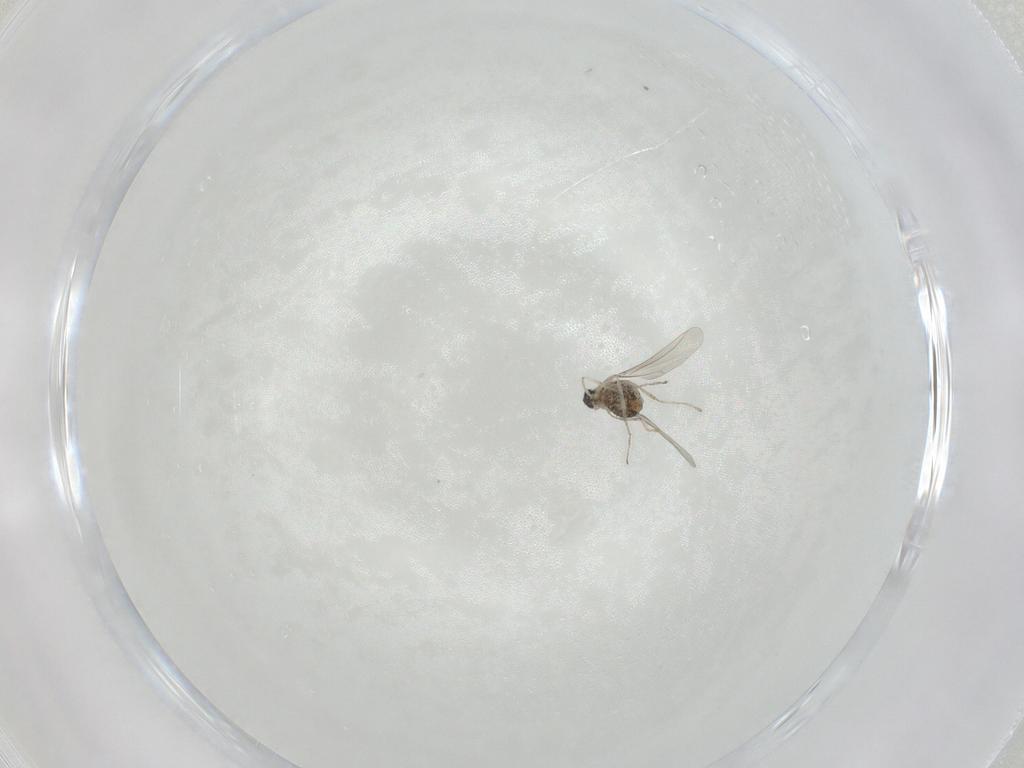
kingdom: Animalia
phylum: Arthropoda
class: Insecta
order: Diptera
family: Cecidomyiidae
